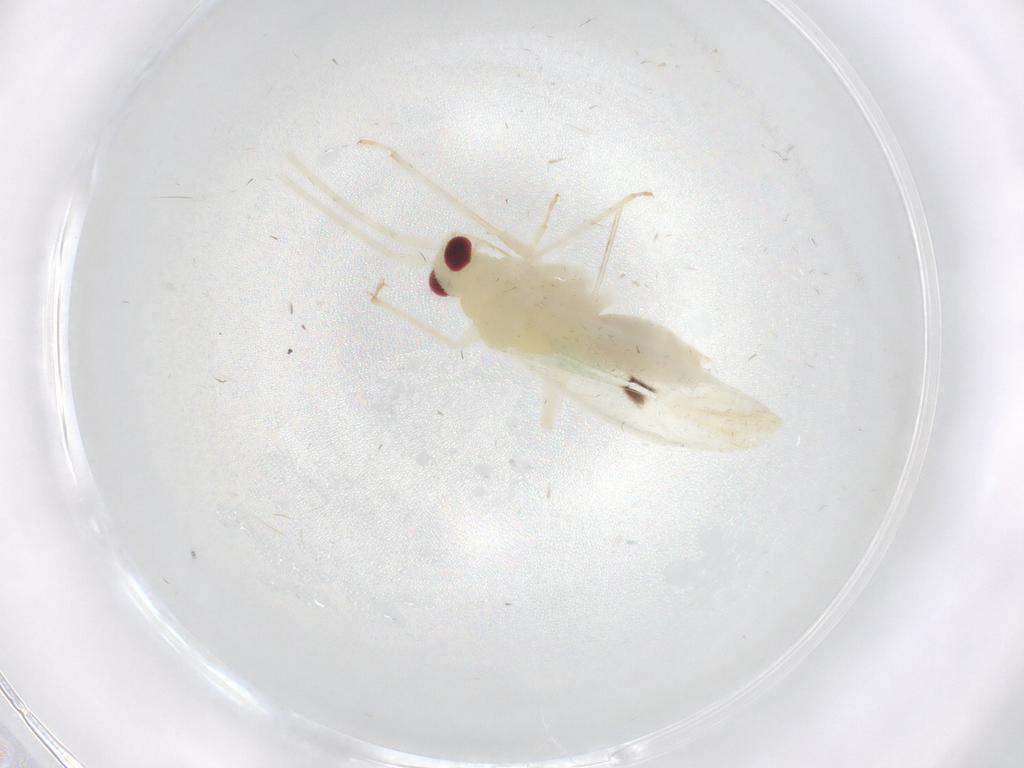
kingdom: Animalia
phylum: Arthropoda
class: Insecta
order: Hemiptera
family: Miridae
